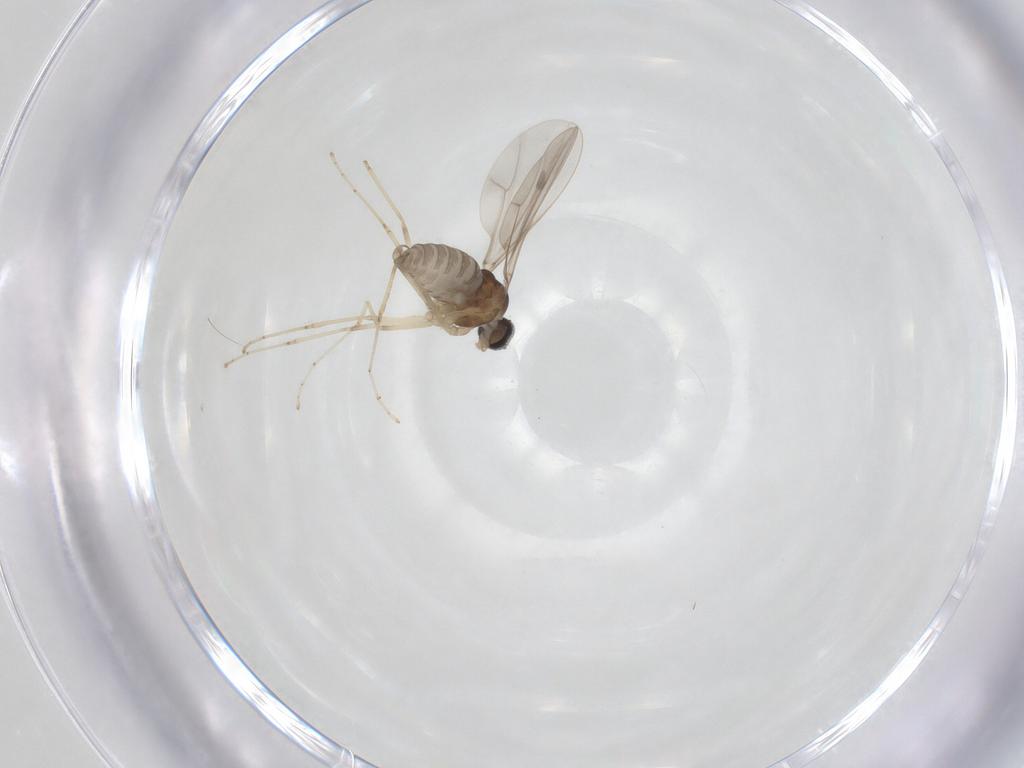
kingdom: Animalia
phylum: Arthropoda
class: Insecta
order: Diptera
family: Cecidomyiidae
